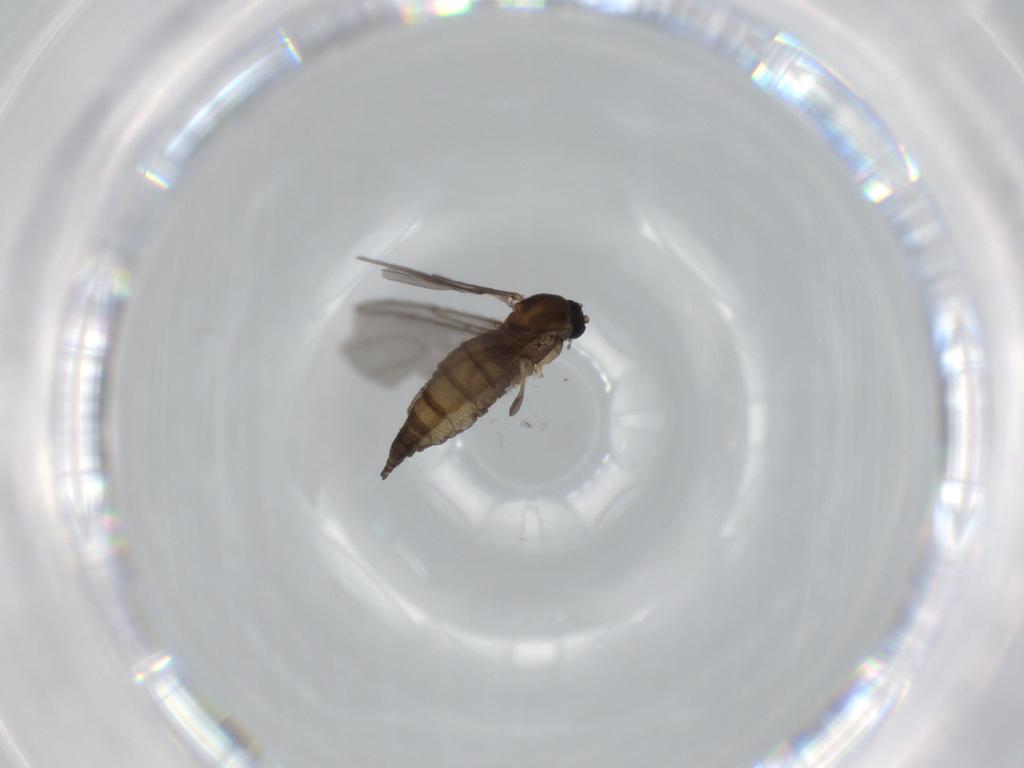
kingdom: Animalia
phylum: Arthropoda
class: Insecta
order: Diptera
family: Sciaridae
